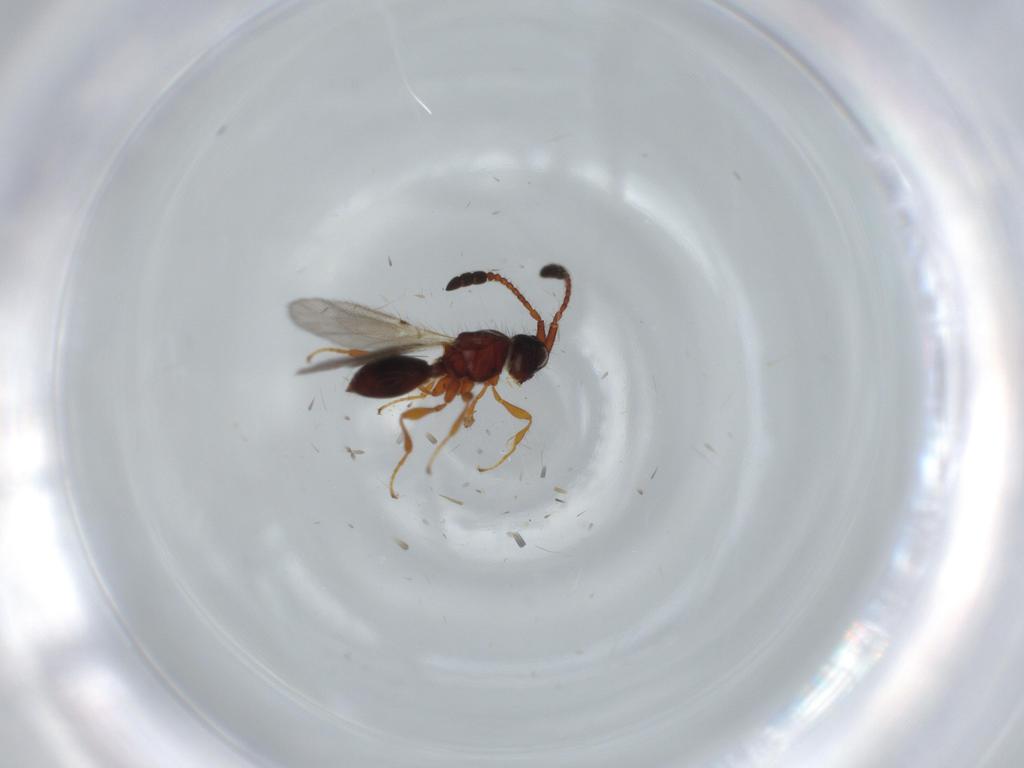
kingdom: Animalia
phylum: Arthropoda
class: Insecta
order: Hymenoptera
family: Diapriidae
